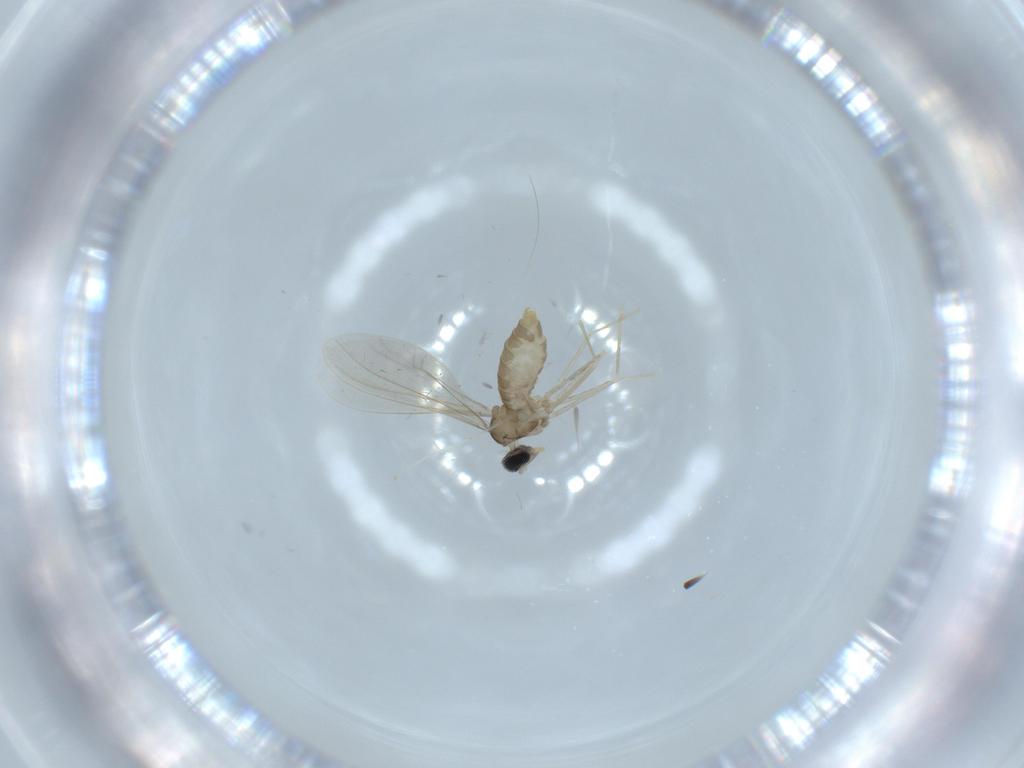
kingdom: Animalia
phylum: Arthropoda
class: Insecta
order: Diptera
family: Cecidomyiidae
